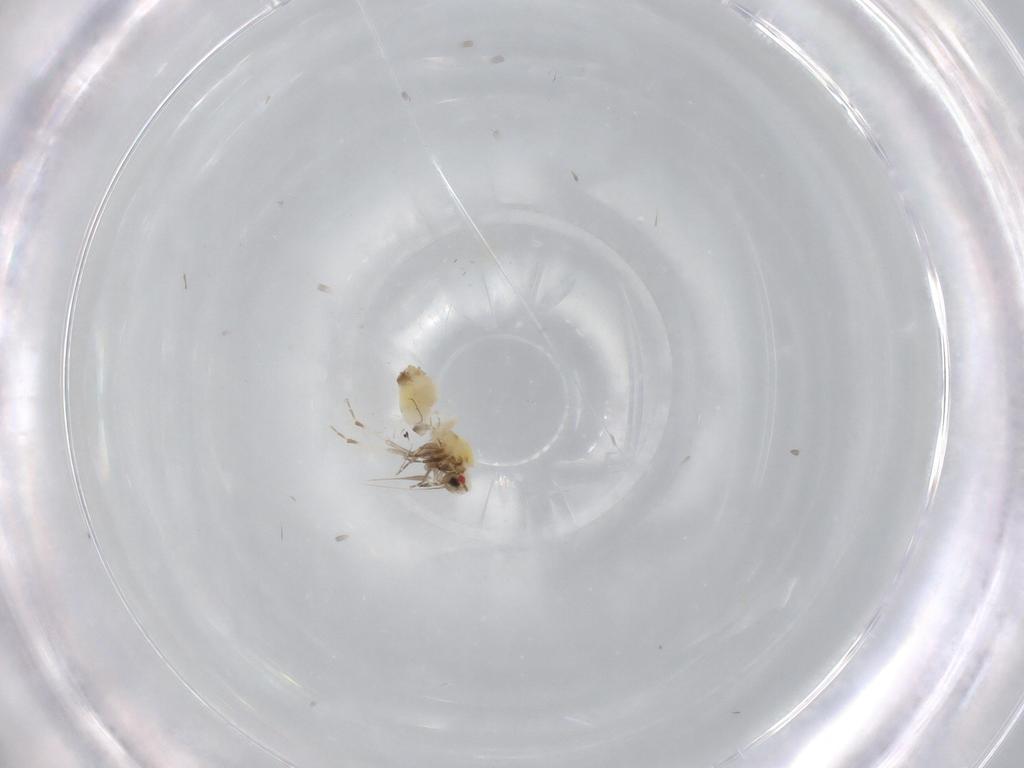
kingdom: Animalia
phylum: Arthropoda
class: Insecta
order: Hemiptera
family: Aleyrodidae
